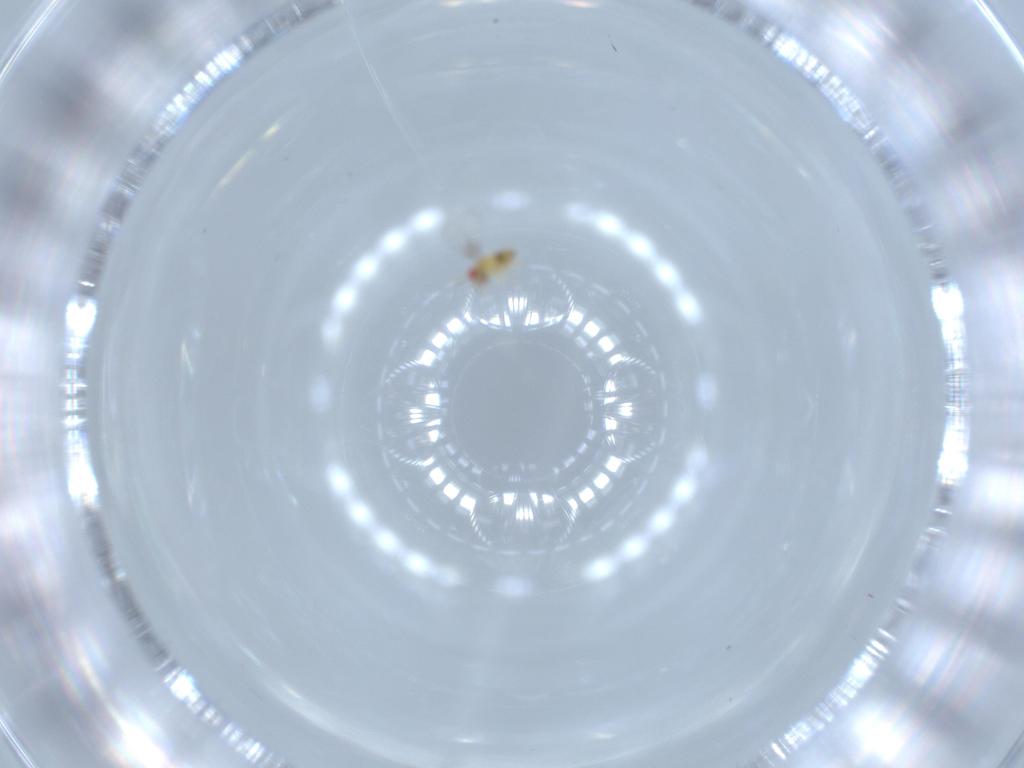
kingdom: Animalia
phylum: Arthropoda
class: Insecta
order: Hymenoptera
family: Trichogrammatidae
